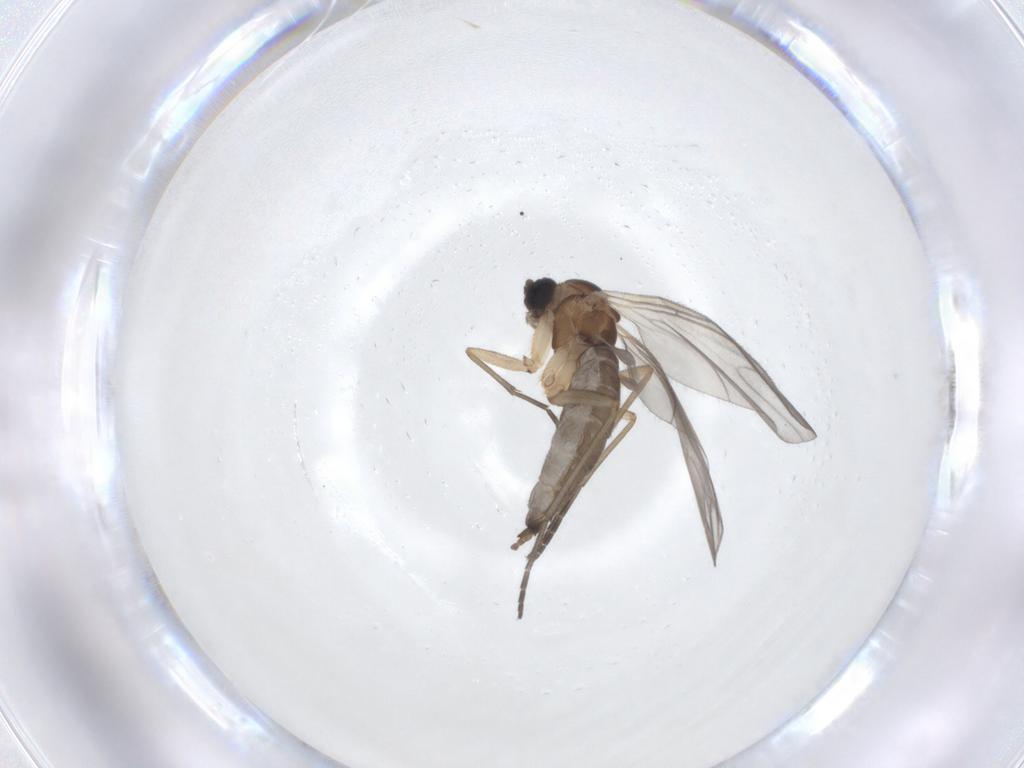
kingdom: Animalia
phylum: Arthropoda
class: Insecta
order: Diptera
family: Sciaridae
